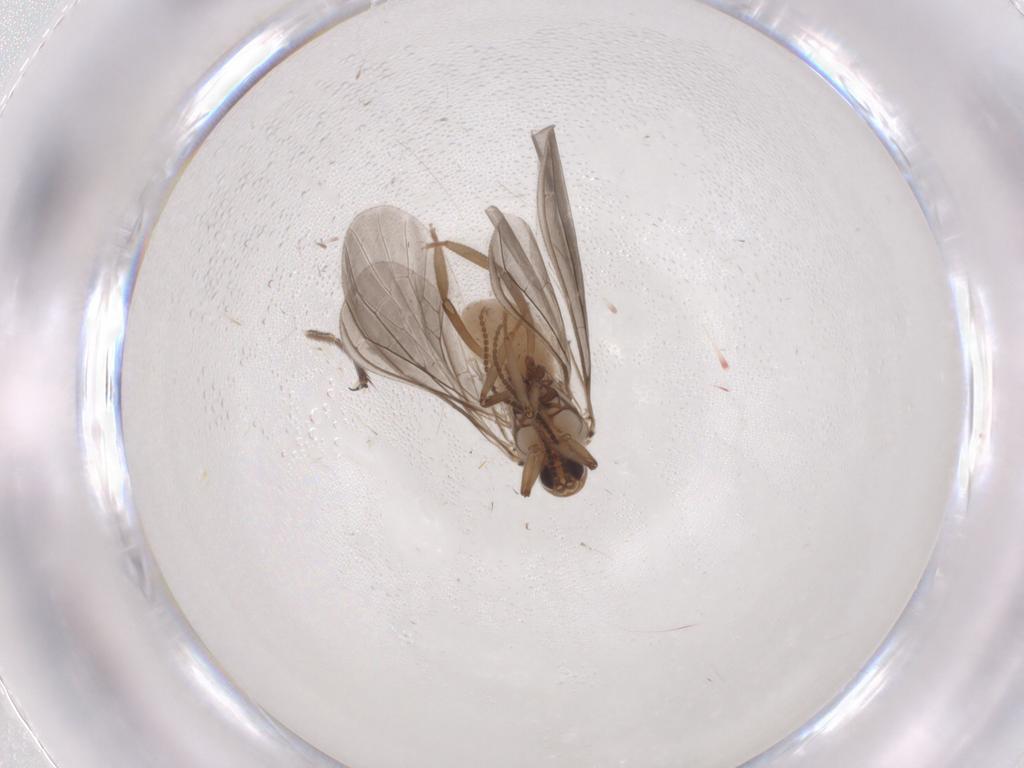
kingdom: Animalia
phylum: Arthropoda
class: Insecta
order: Neuroptera
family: Coniopterygidae
